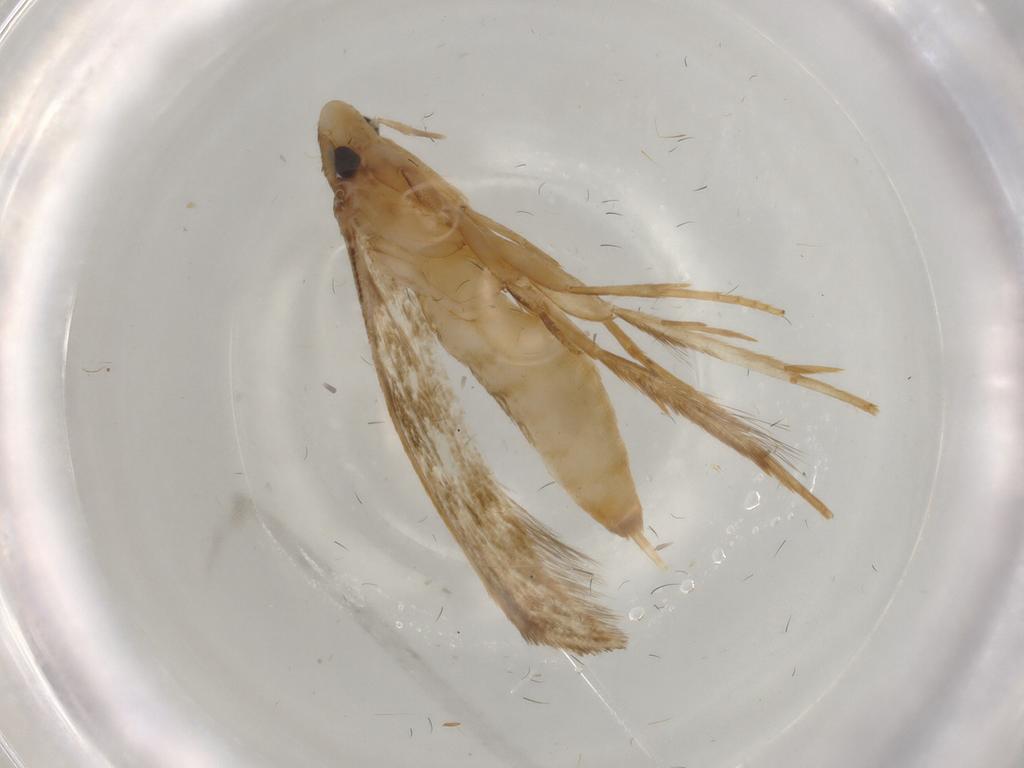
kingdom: Animalia
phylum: Arthropoda
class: Insecta
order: Lepidoptera
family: Tineidae
